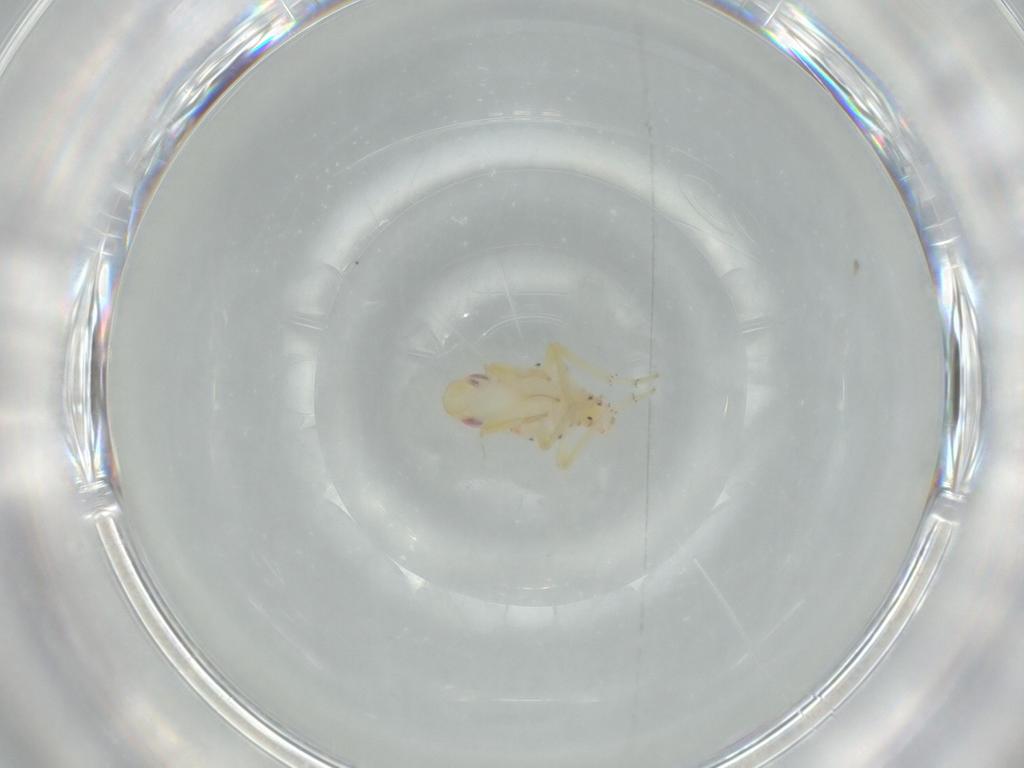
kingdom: Animalia
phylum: Arthropoda
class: Insecta
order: Hemiptera
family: Tropiduchidae
